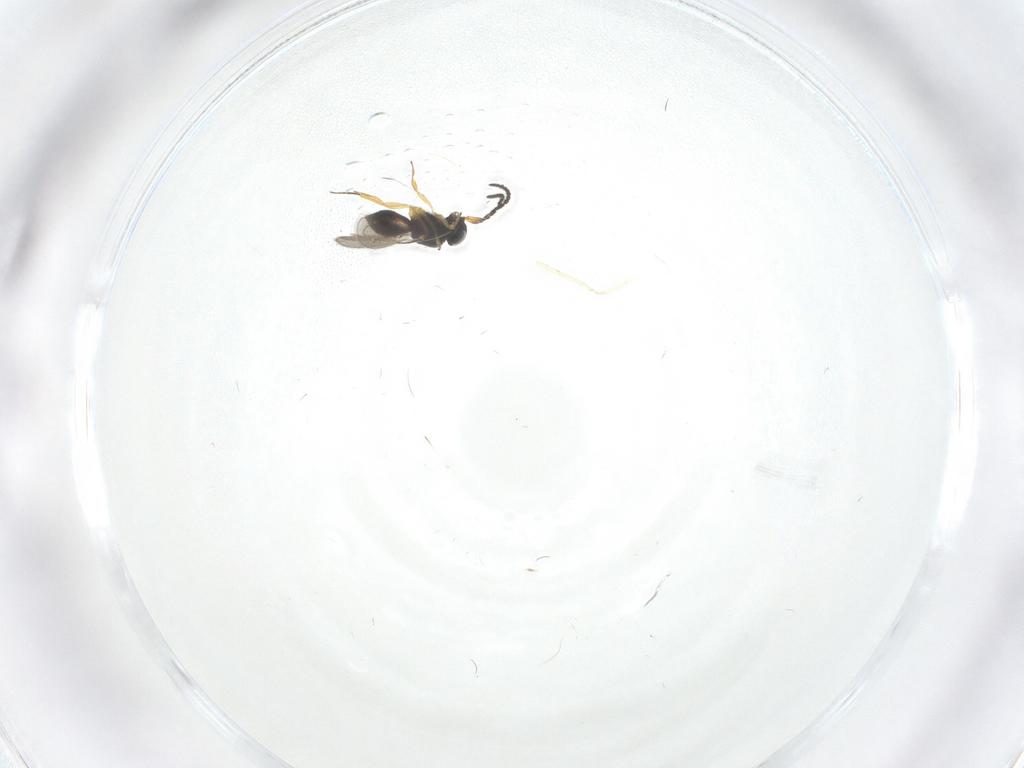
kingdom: Animalia
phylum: Arthropoda
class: Insecta
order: Hymenoptera
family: Scelionidae
